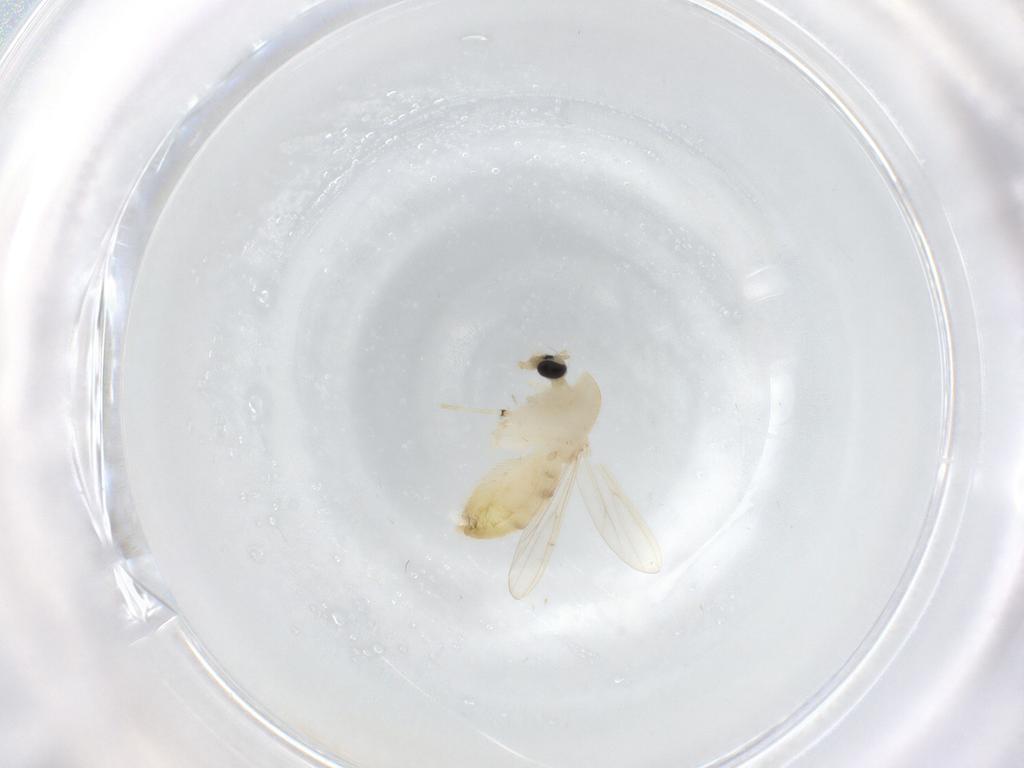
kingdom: Animalia
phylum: Arthropoda
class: Insecta
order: Diptera
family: Chironomidae
